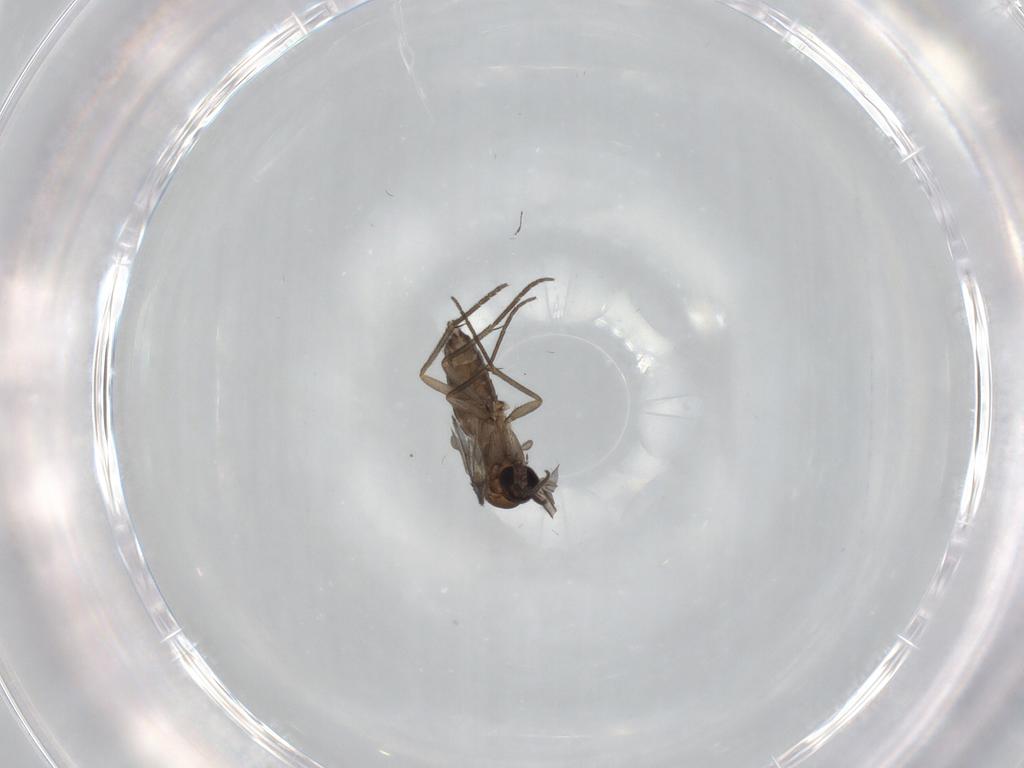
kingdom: Animalia
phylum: Arthropoda
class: Insecta
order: Diptera
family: Sciaridae
